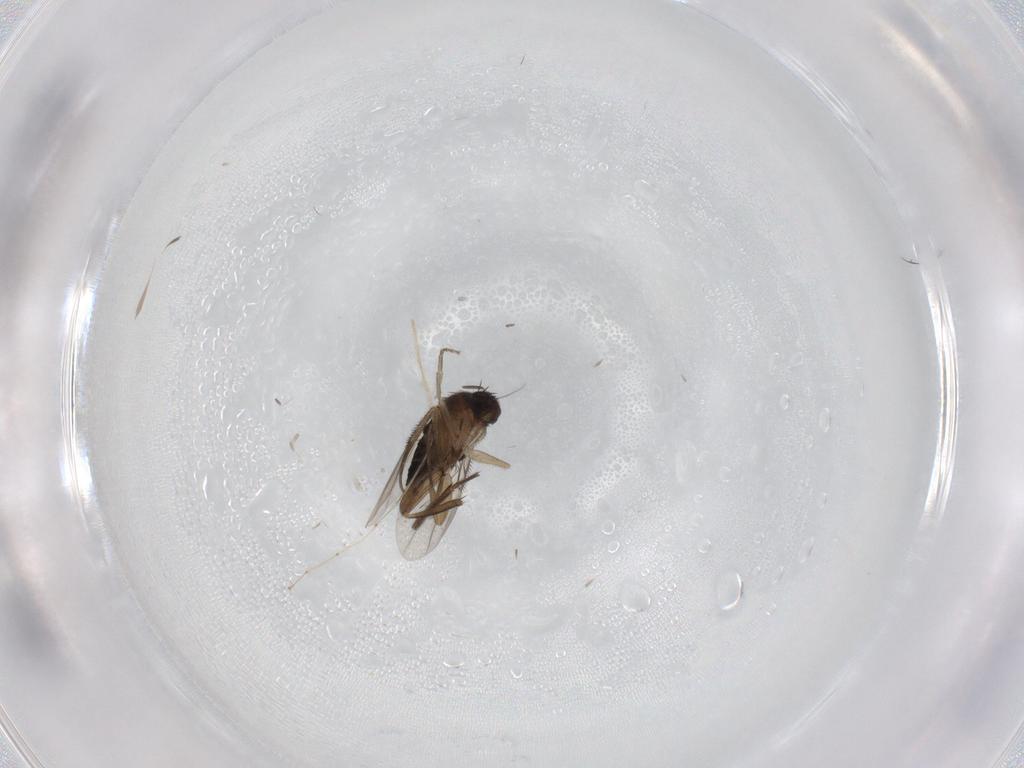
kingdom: Animalia
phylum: Arthropoda
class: Insecta
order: Diptera
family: Phoridae
